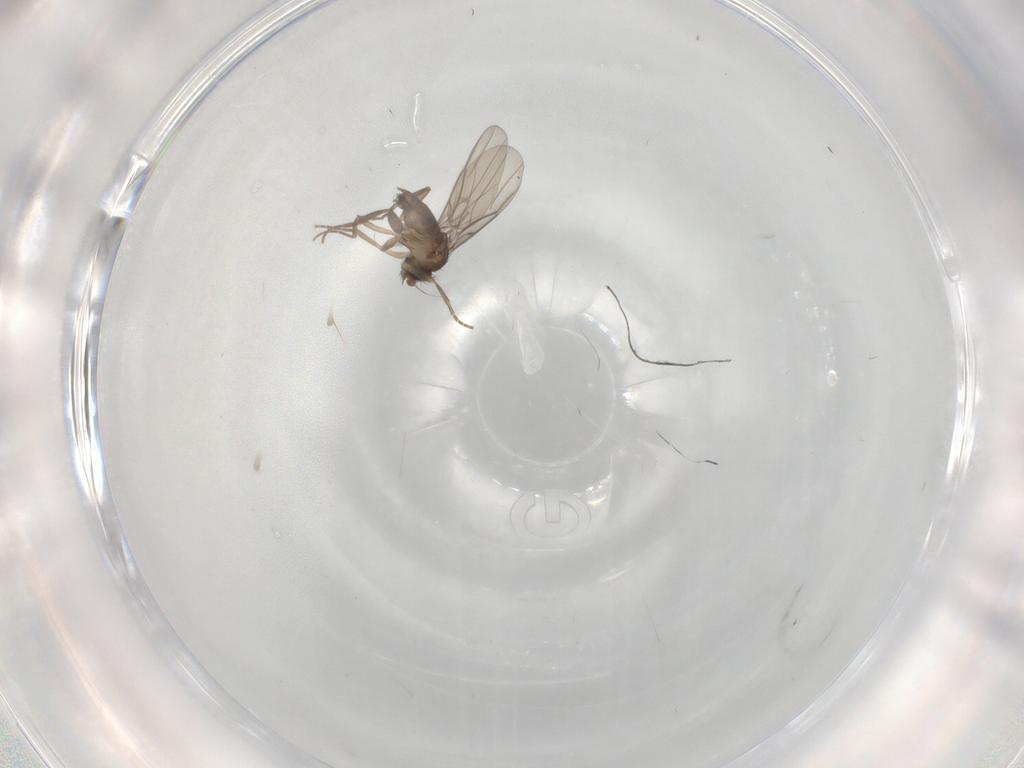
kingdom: Animalia
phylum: Arthropoda
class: Insecta
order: Diptera
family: Phoridae
